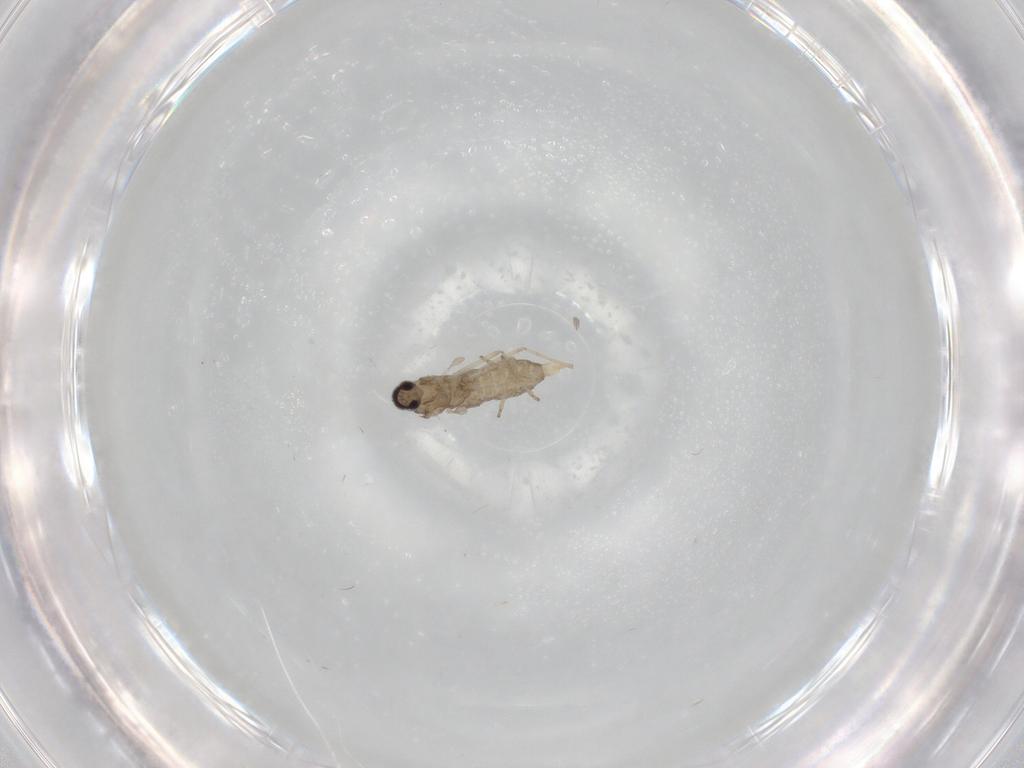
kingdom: Animalia
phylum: Arthropoda
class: Insecta
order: Diptera
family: Cecidomyiidae
